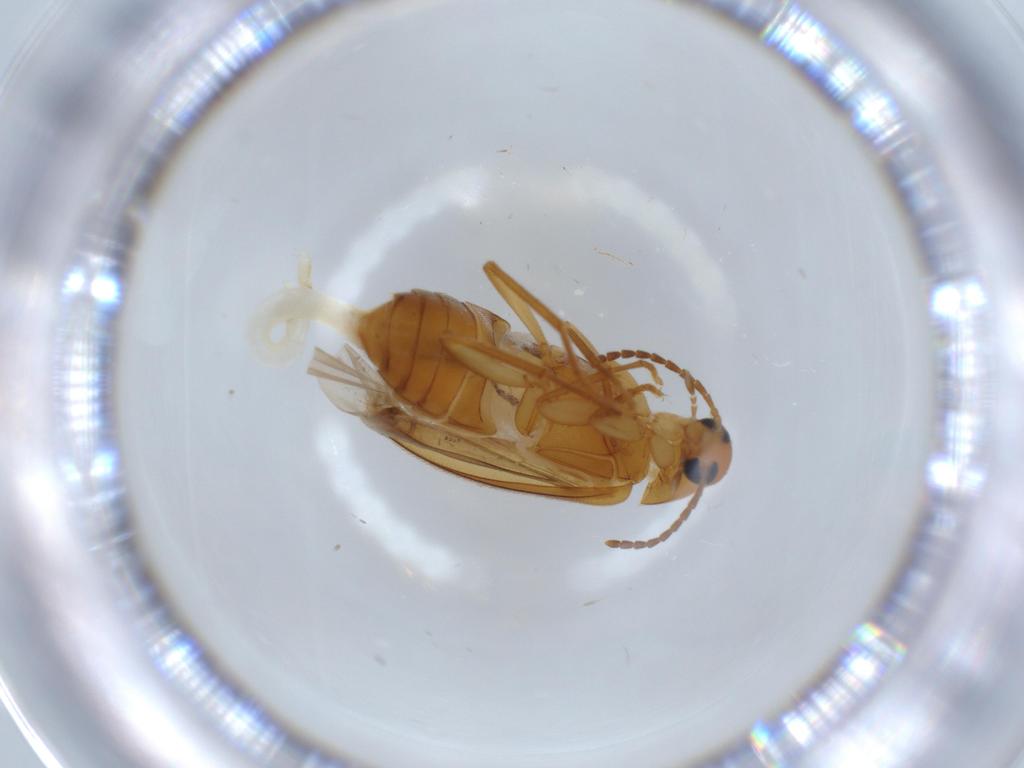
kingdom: Animalia
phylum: Arthropoda
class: Insecta
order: Coleoptera
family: Scraptiidae
